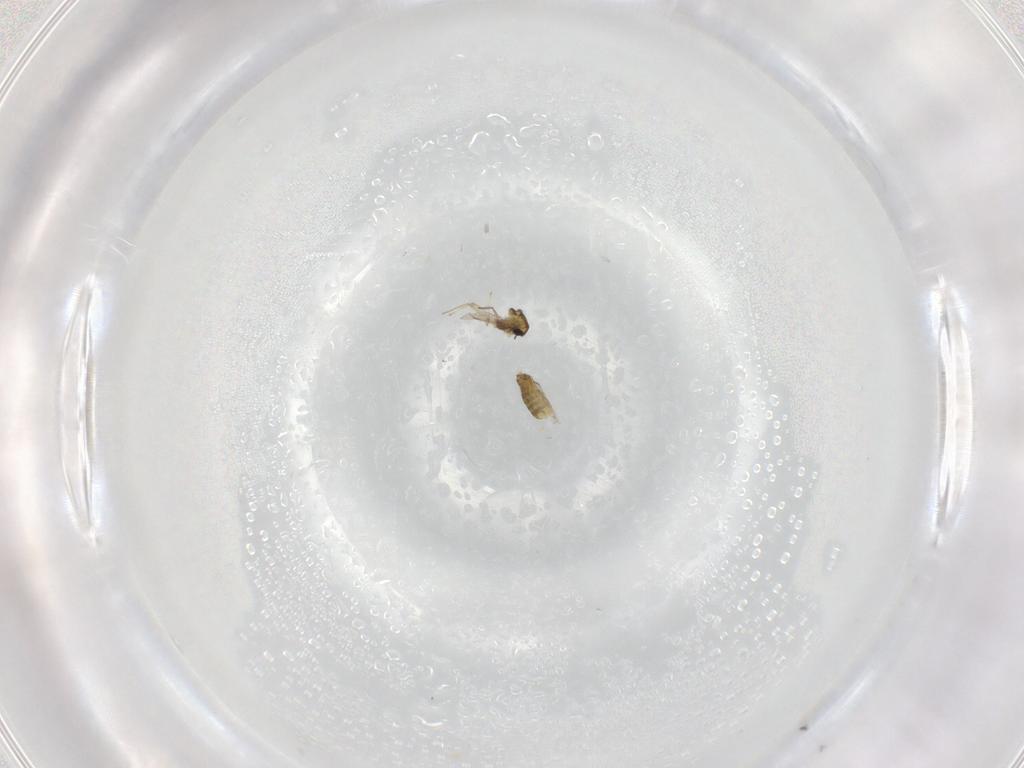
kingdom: Animalia
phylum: Arthropoda
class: Insecta
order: Diptera
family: Chironomidae
